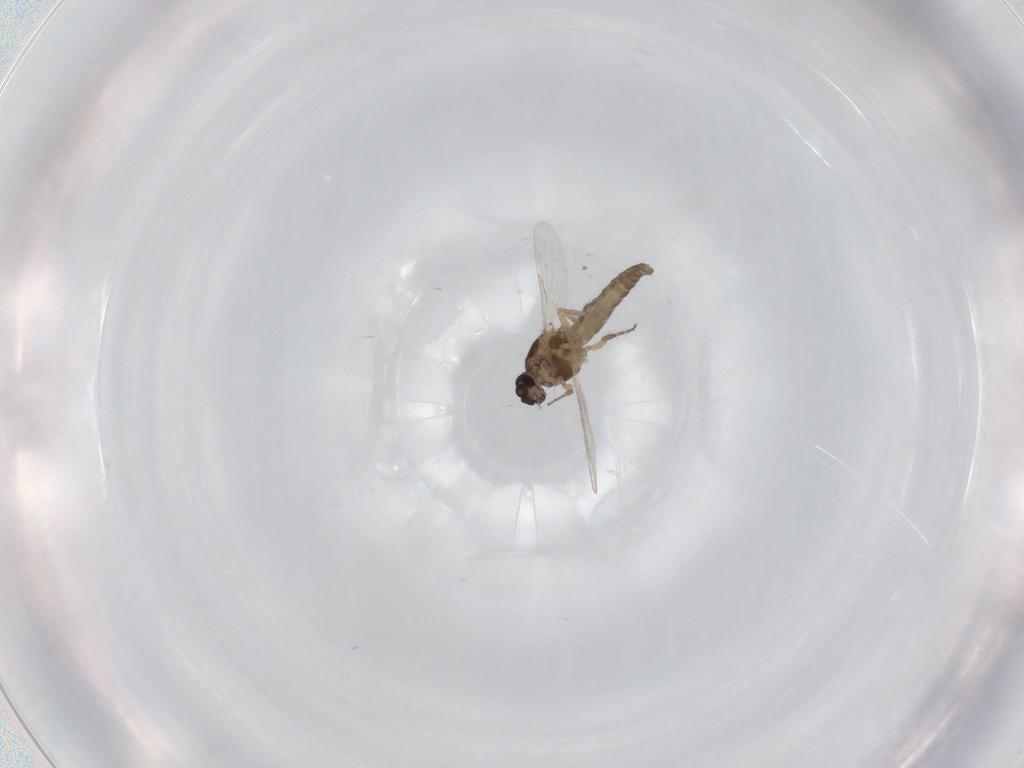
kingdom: Animalia
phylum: Arthropoda
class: Insecta
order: Diptera
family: Ceratopogonidae
